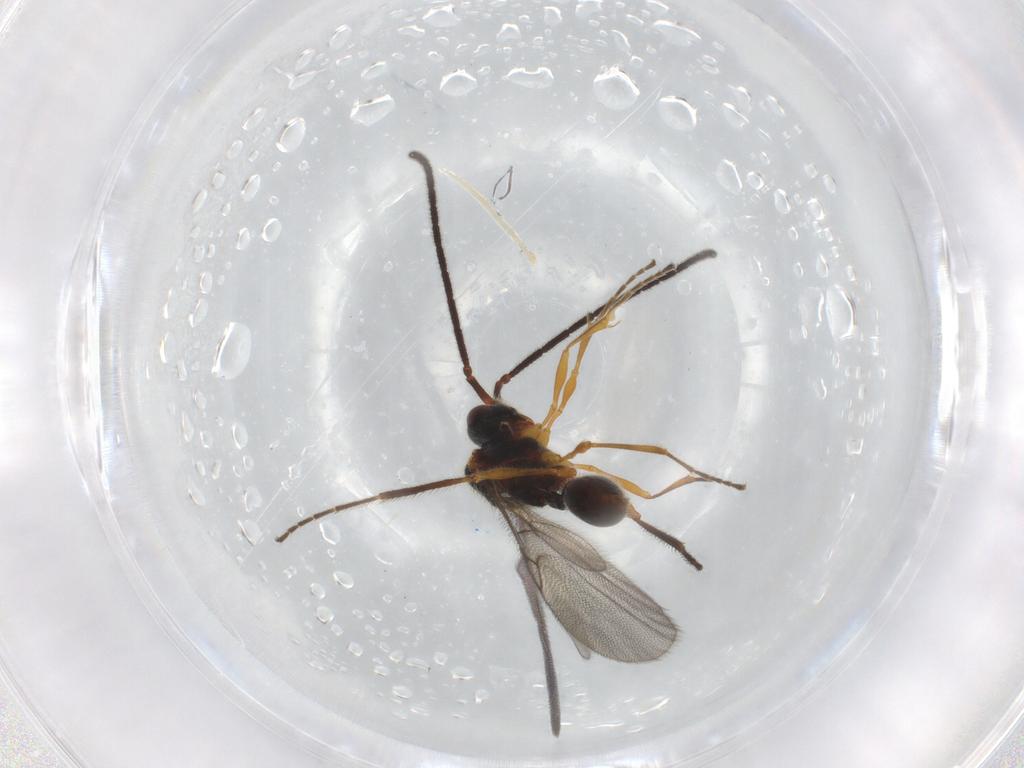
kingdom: Animalia
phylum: Arthropoda
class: Insecta
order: Hymenoptera
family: Diapriidae
